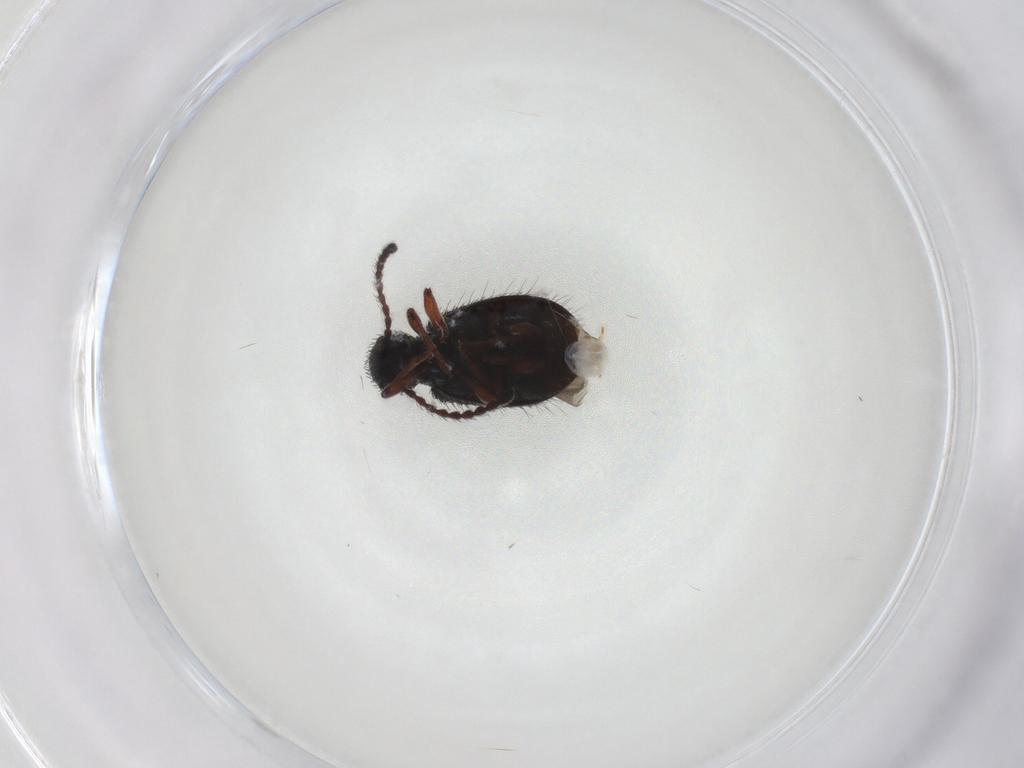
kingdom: Animalia
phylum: Arthropoda
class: Insecta
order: Coleoptera
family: Ptinidae
